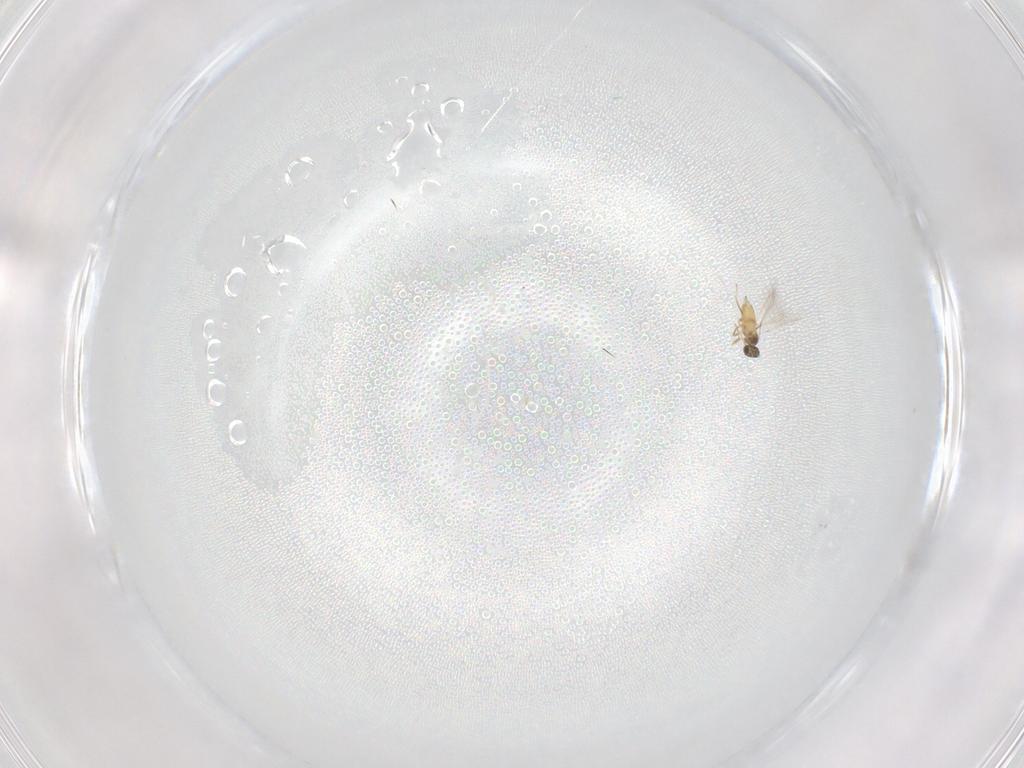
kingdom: Animalia
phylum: Arthropoda
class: Insecta
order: Hymenoptera
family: Mymaridae
